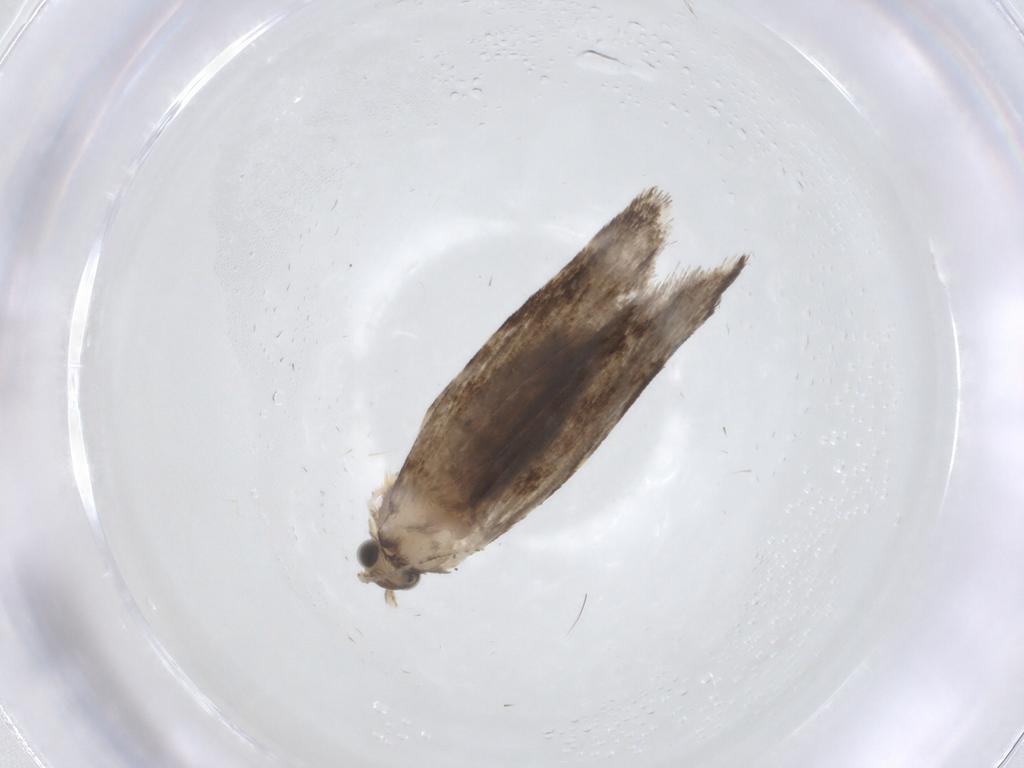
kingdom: Animalia
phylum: Arthropoda
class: Insecta
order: Lepidoptera
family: Tineidae
